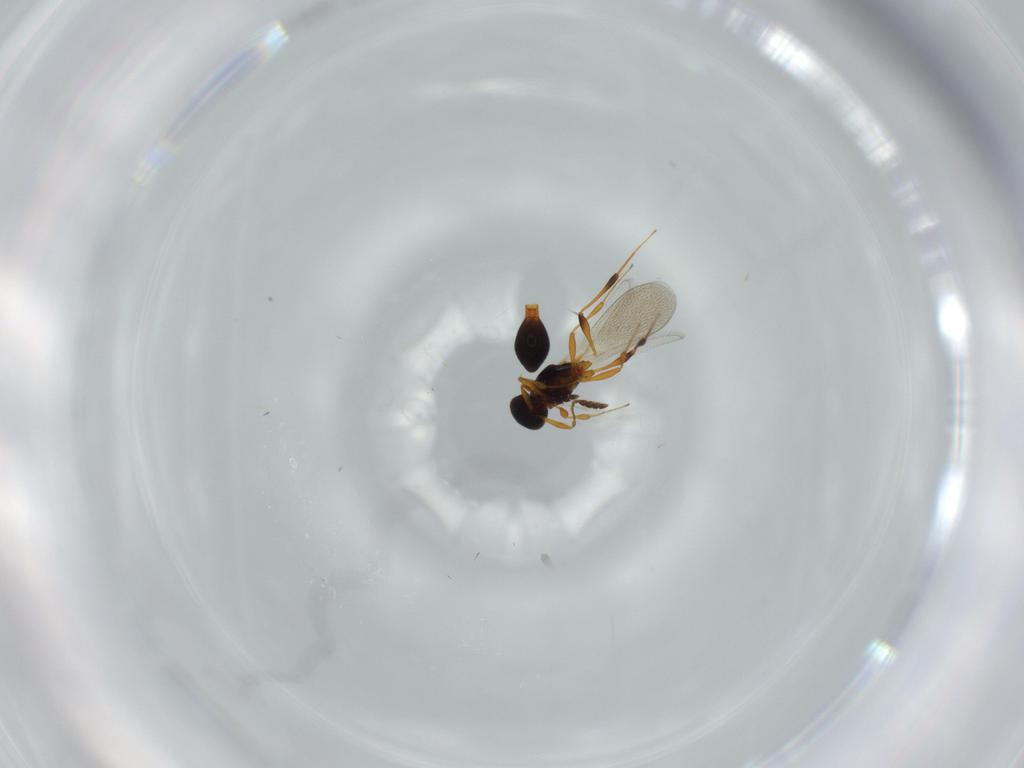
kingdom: Animalia
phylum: Arthropoda
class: Insecta
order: Hymenoptera
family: Platygastridae
